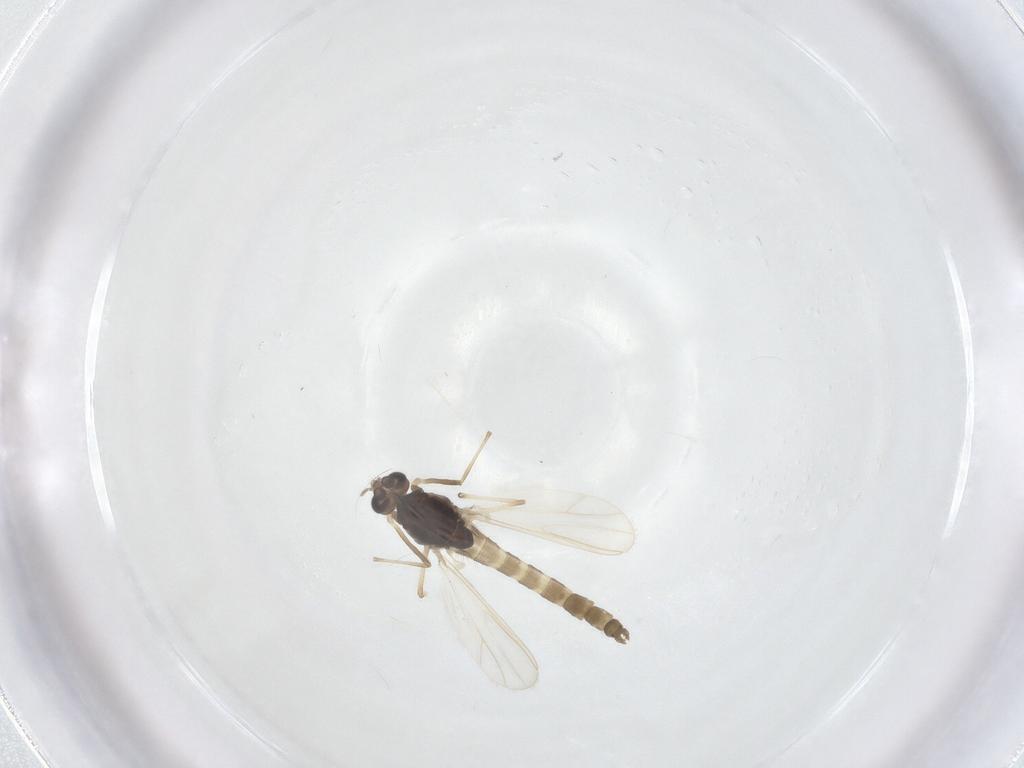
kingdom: Animalia
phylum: Arthropoda
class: Insecta
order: Diptera
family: Chironomidae
